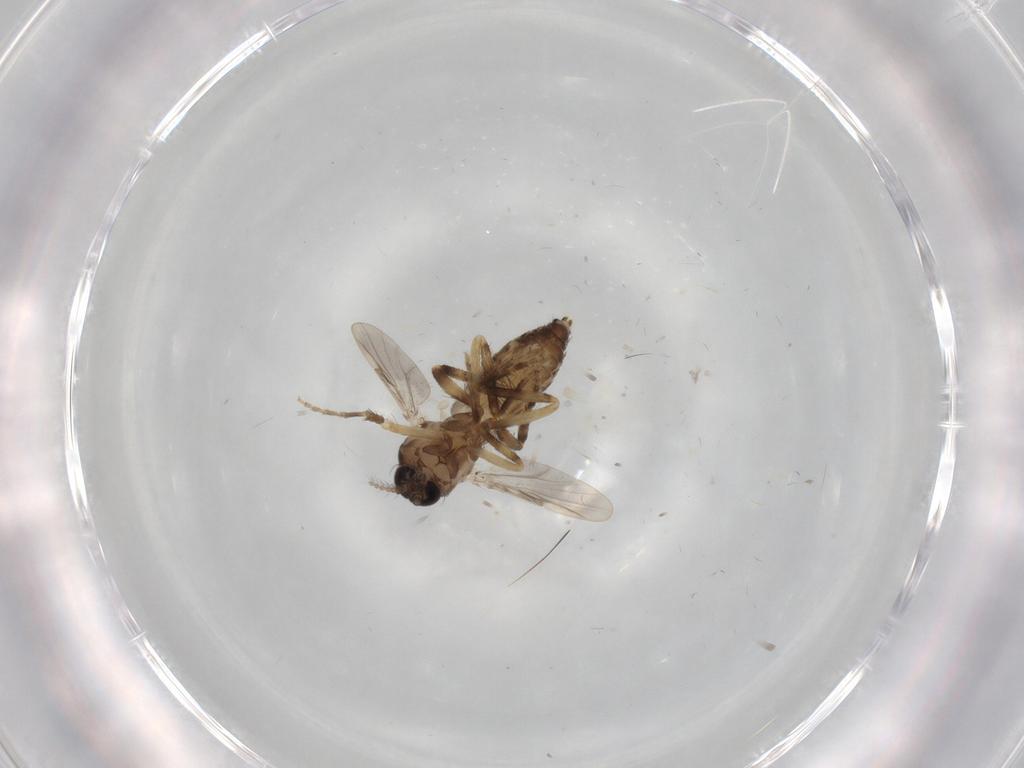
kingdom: Animalia
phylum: Arthropoda
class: Insecta
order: Diptera
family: Ceratopogonidae
